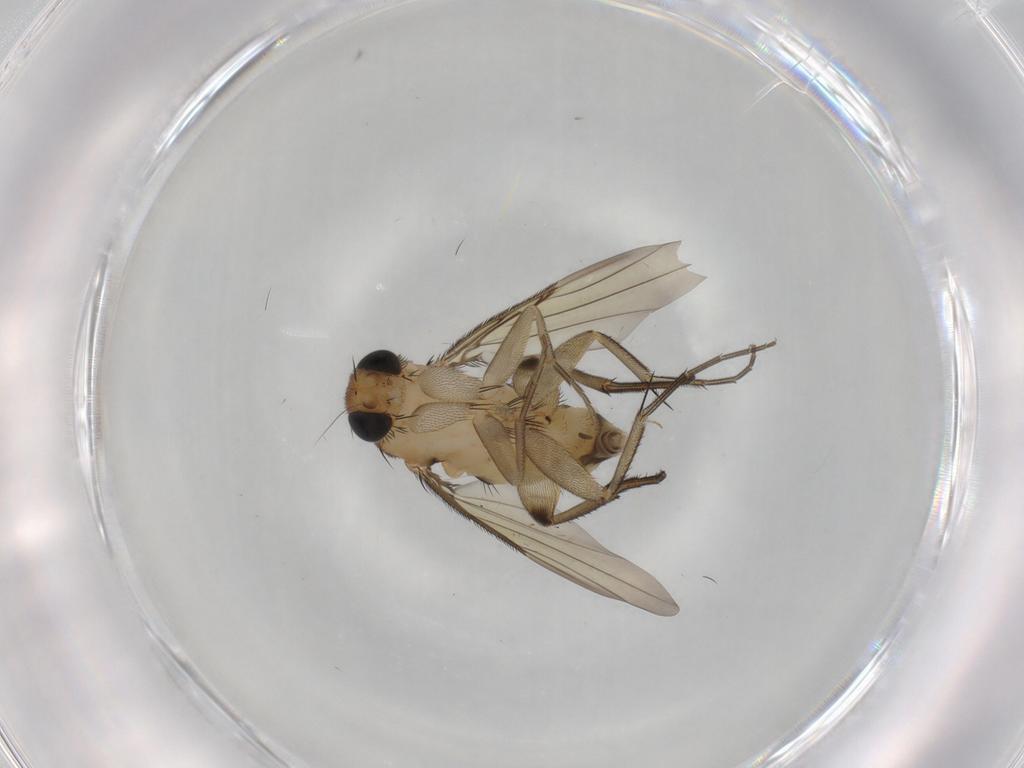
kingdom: Animalia
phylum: Arthropoda
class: Insecta
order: Diptera
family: Phoridae
